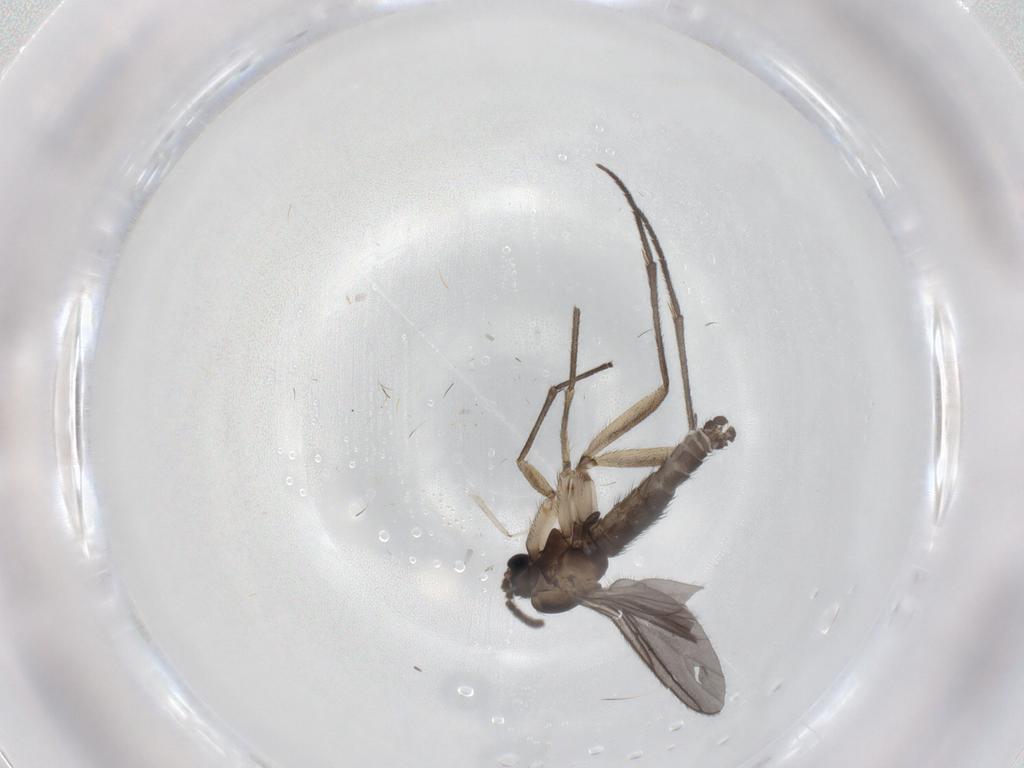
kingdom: Animalia
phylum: Arthropoda
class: Insecta
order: Diptera
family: Sciaridae
